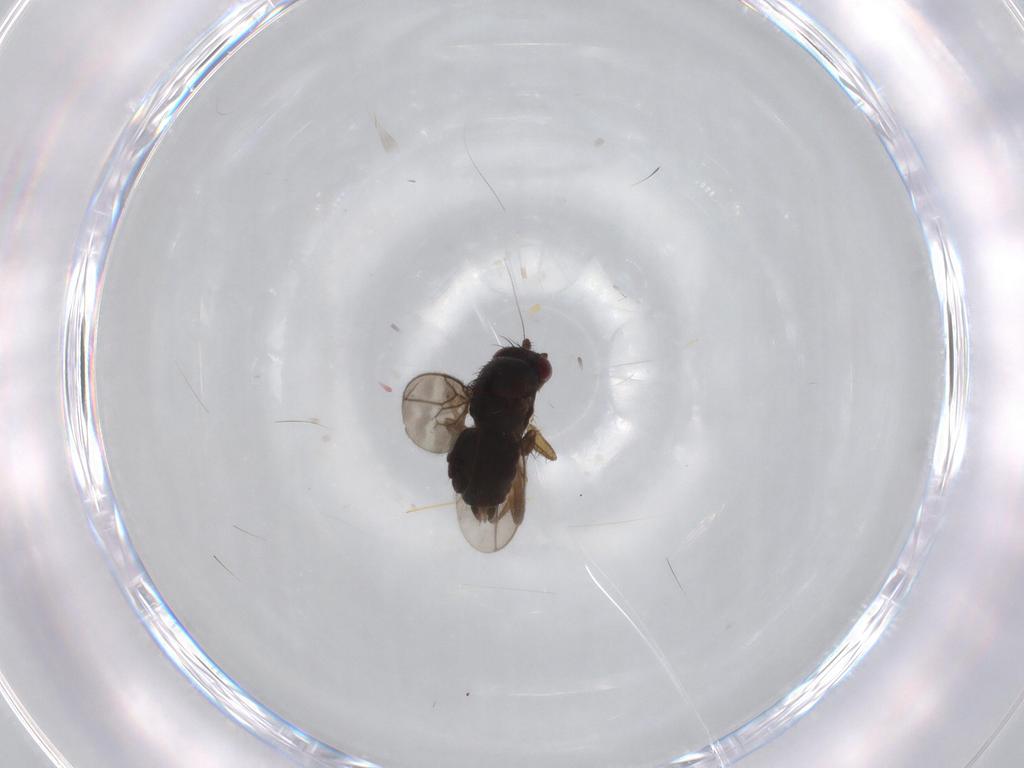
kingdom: Animalia
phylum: Arthropoda
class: Insecta
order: Diptera
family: Sphaeroceridae
